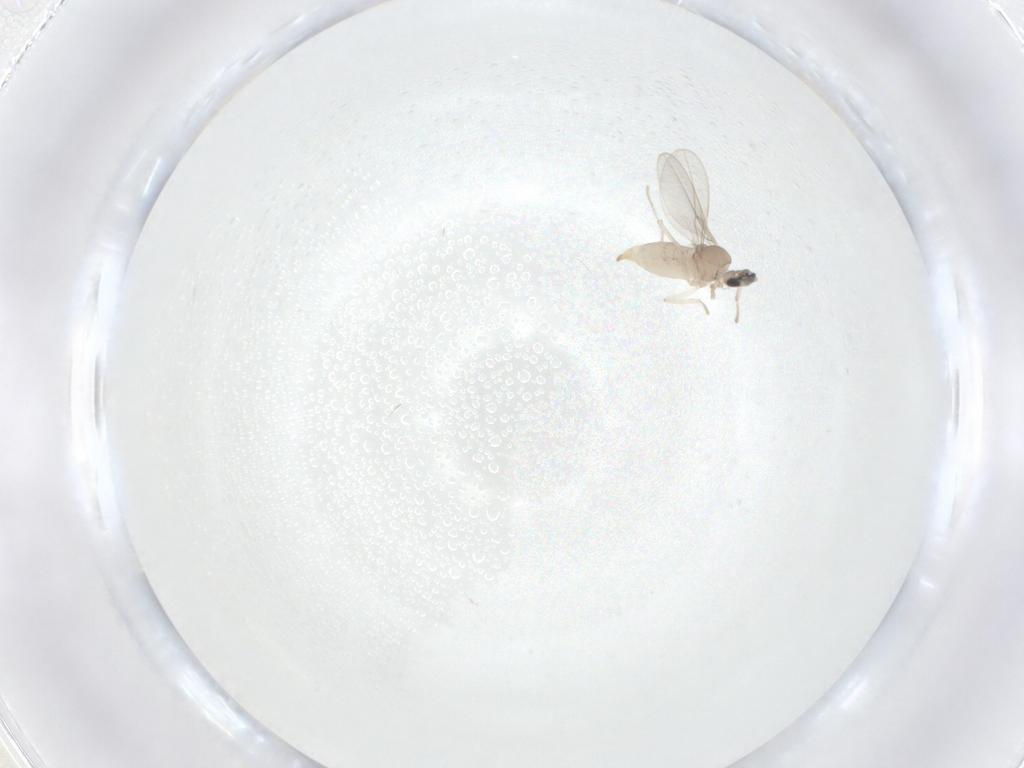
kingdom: Animalia
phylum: Arthropoda
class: Insecta
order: Diptera
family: Cecidomyiidae
